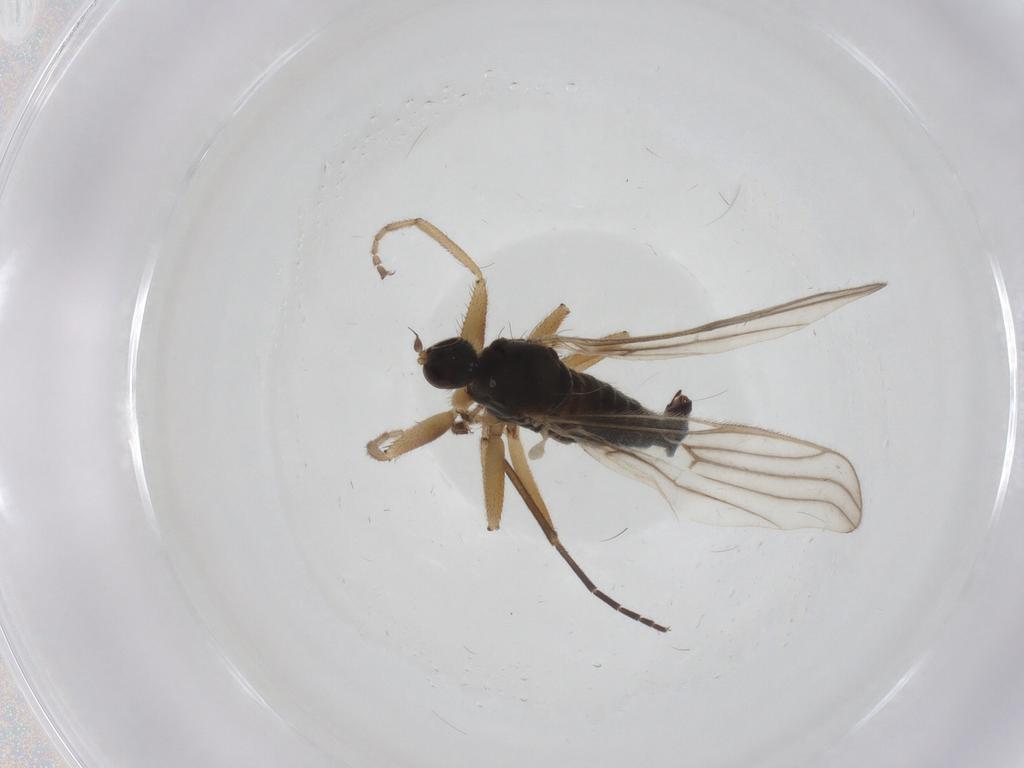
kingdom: Animalia
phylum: Arthropoda
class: Insecta
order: Diptera
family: Hybotidae
